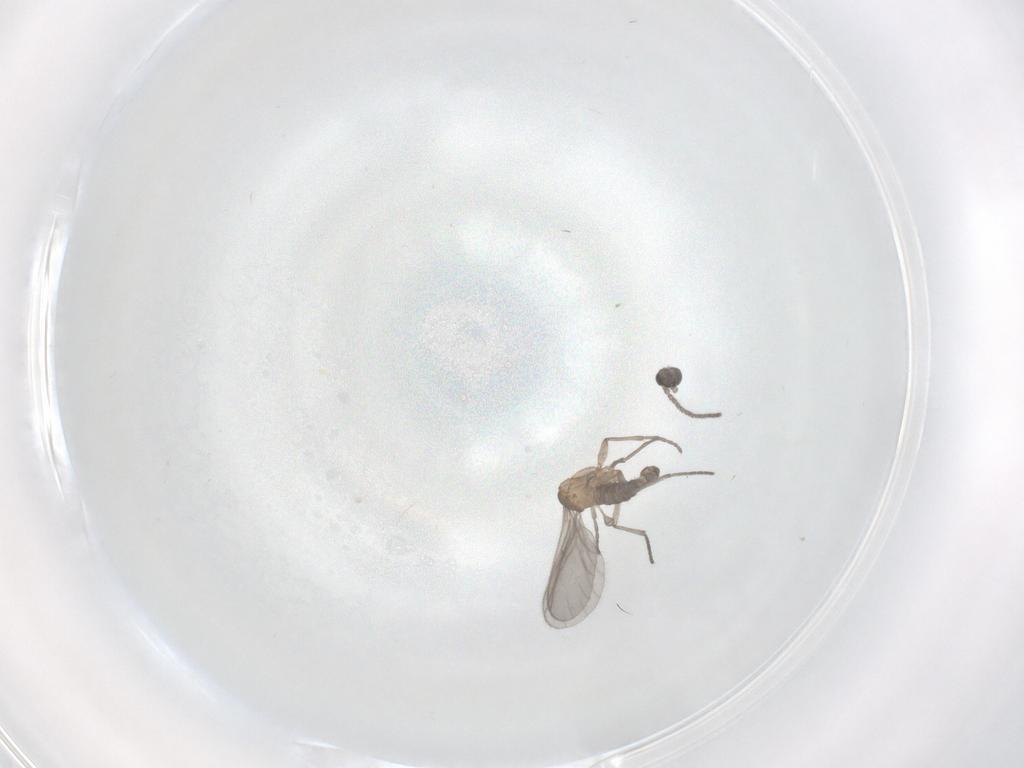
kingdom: Animalia
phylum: Arthropoda
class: Insecta
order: Diptera
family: Sciaridae
